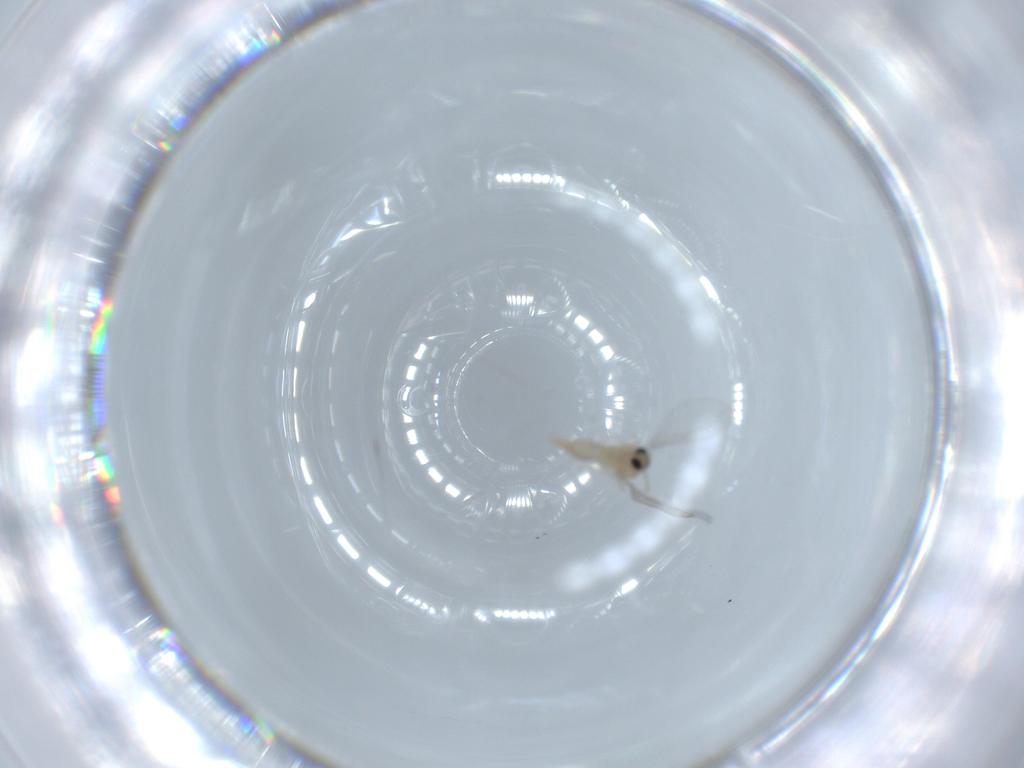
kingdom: Animalia
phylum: Arthropoda
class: Insecta
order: Diptera
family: Cecidomyiidae
